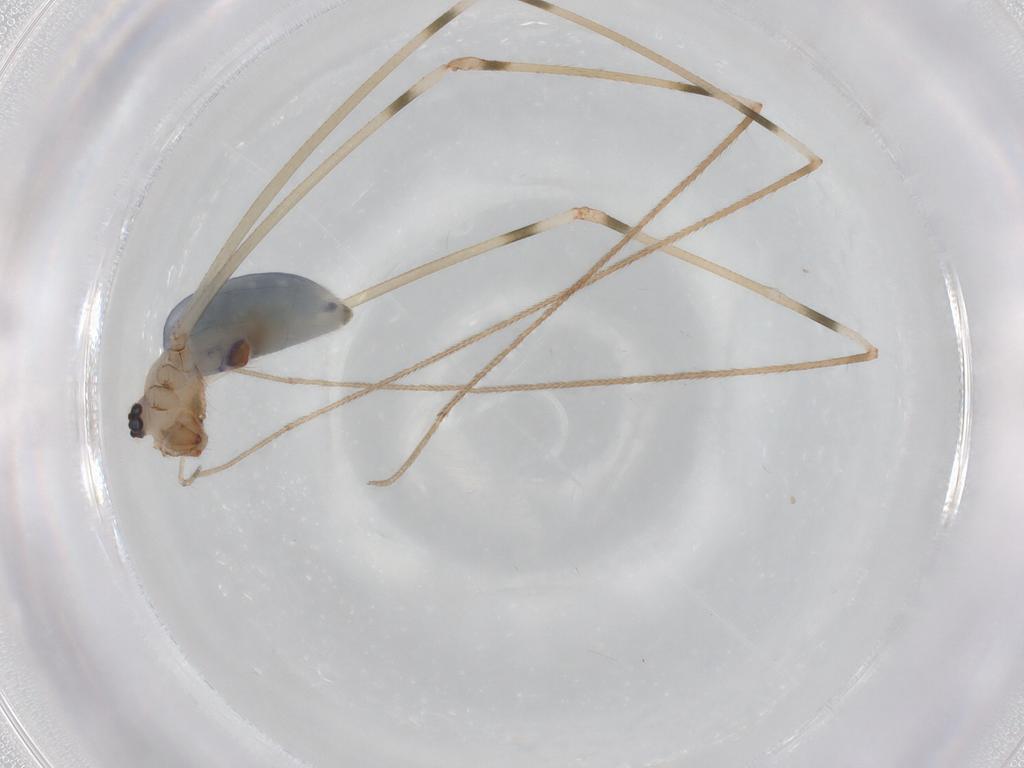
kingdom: Animalia
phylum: Arthropoda
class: Arachnida
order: Araneae
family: Pholcidae
